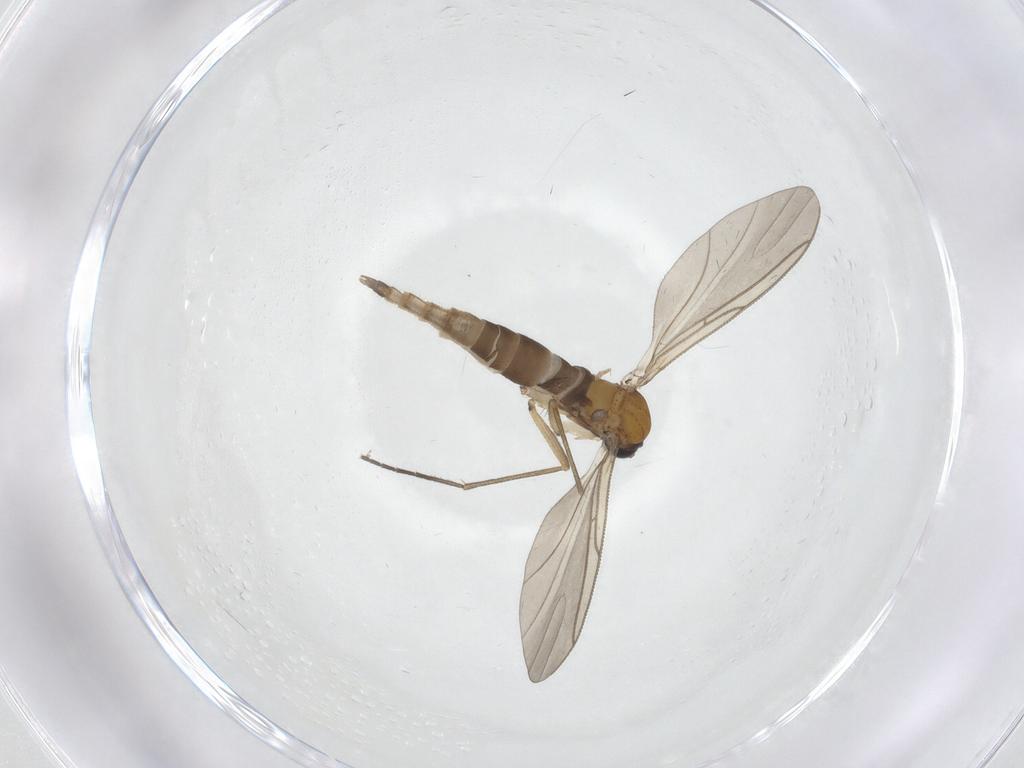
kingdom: Animalia
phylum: Arthropoda
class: Insecta
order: Diptera
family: Sciaridae
